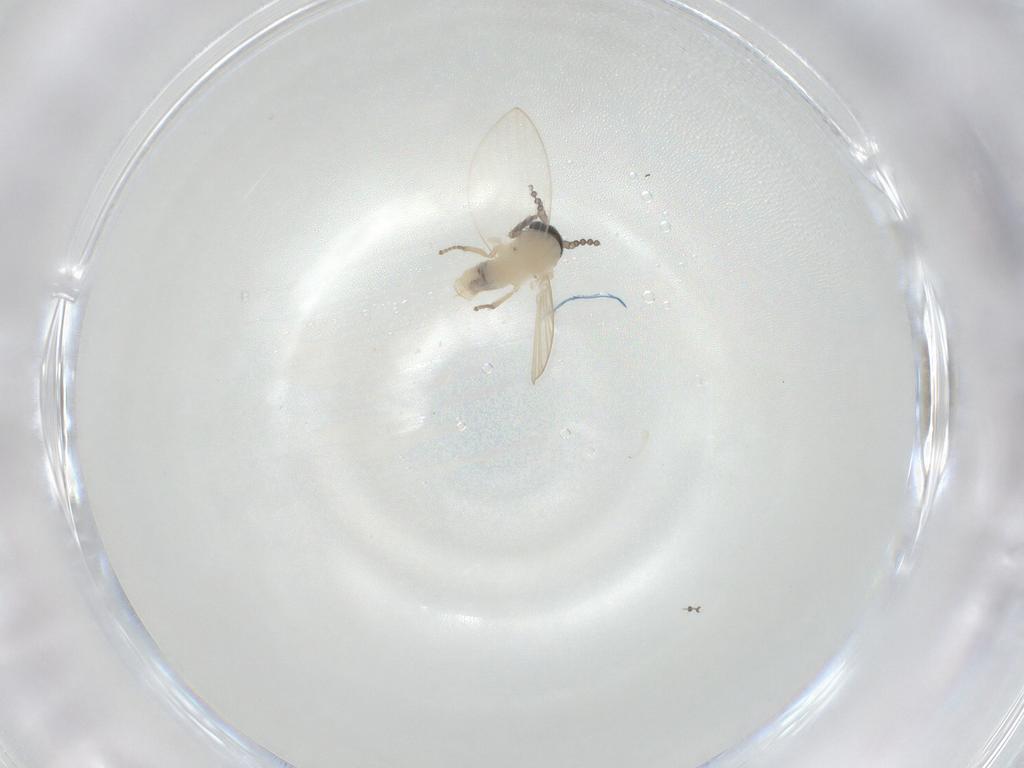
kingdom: Animalia
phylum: Arthropoda
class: Insecta
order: Diptera
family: Psychodidae
